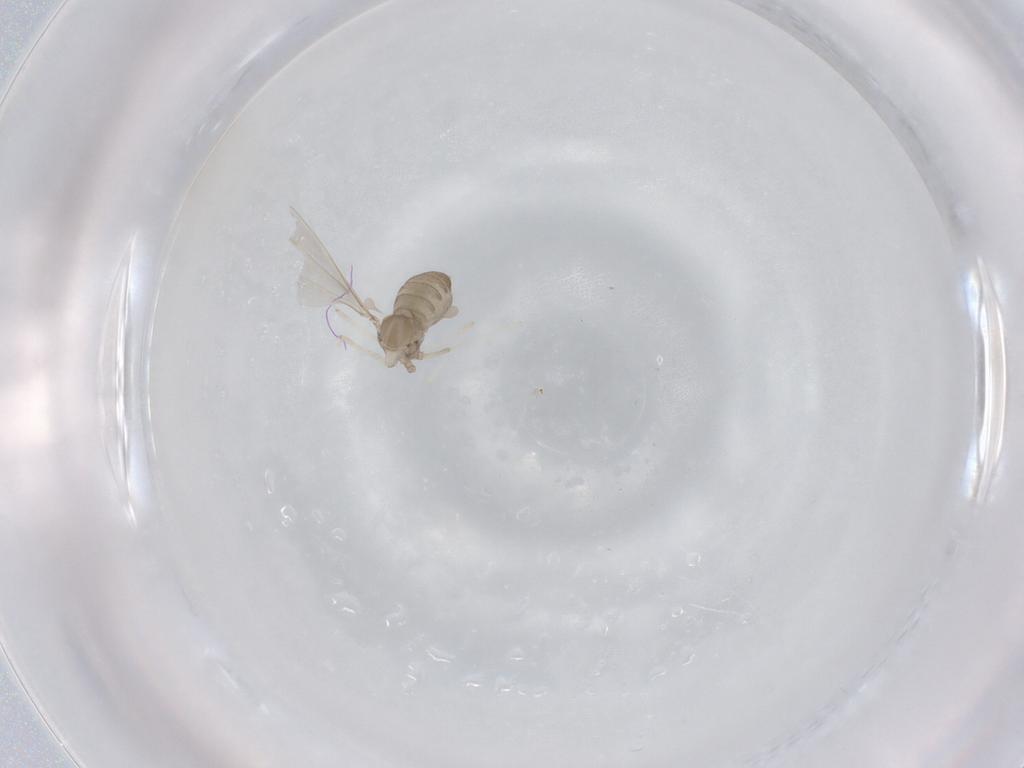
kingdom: Animalia
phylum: Arthropoda
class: Insecta
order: Diptera
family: Cecidomyiidae
